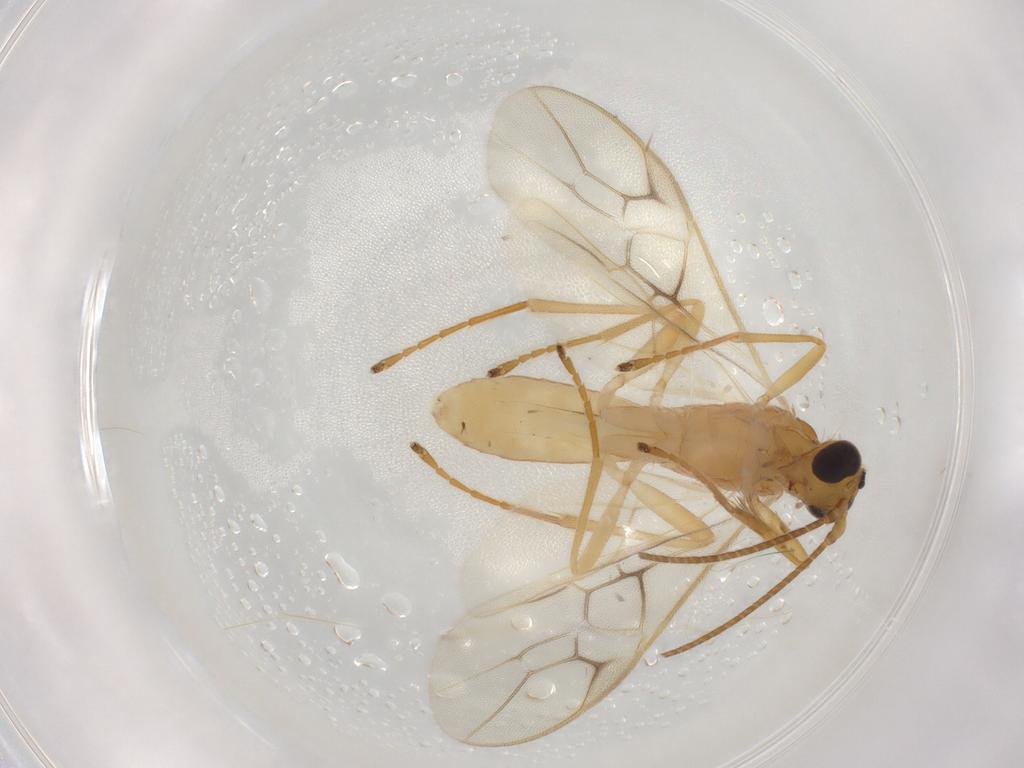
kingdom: Animalia
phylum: Arthropoda
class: Insecta
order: Hymenoptera
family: Braconidae
